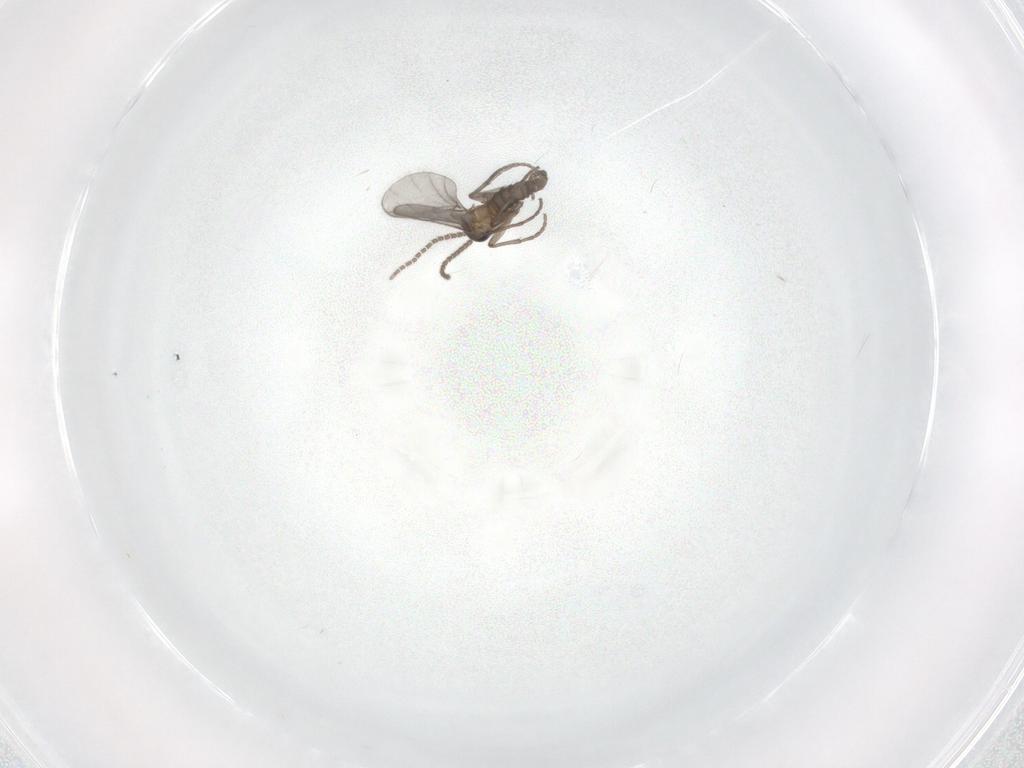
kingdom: Animalia
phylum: Arthropoda
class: Insecta
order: Diptera
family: Sciaridae
